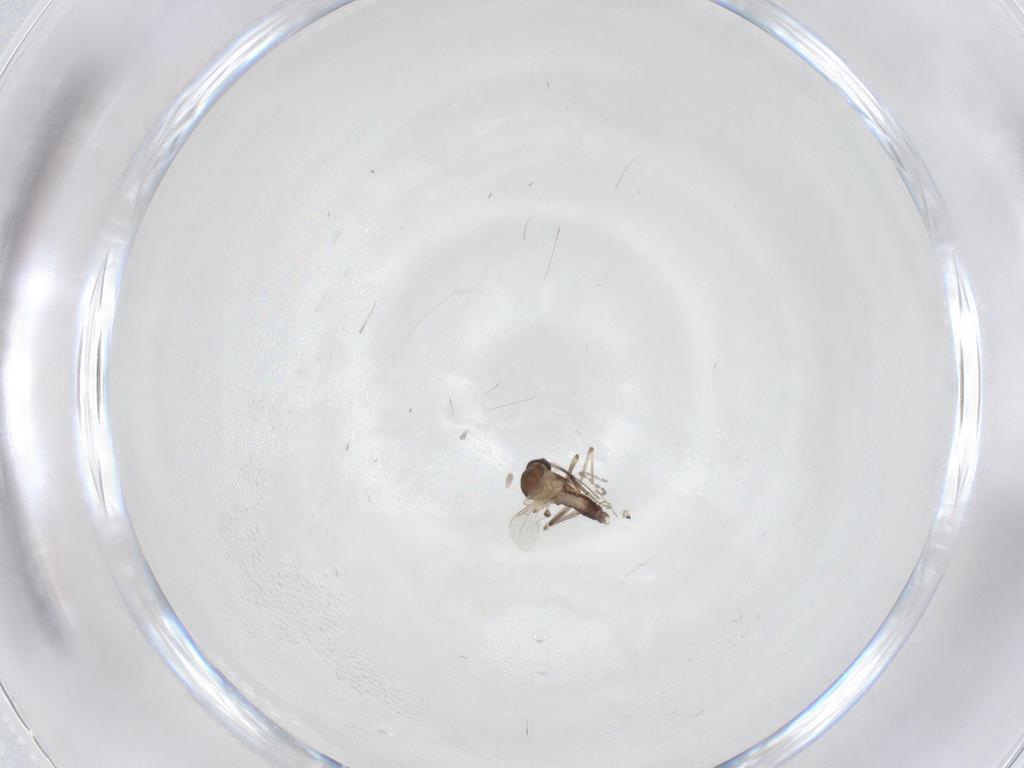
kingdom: Animalia
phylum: Arthropoda
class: Insecta
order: Diptera
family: Cecidomyiidae
